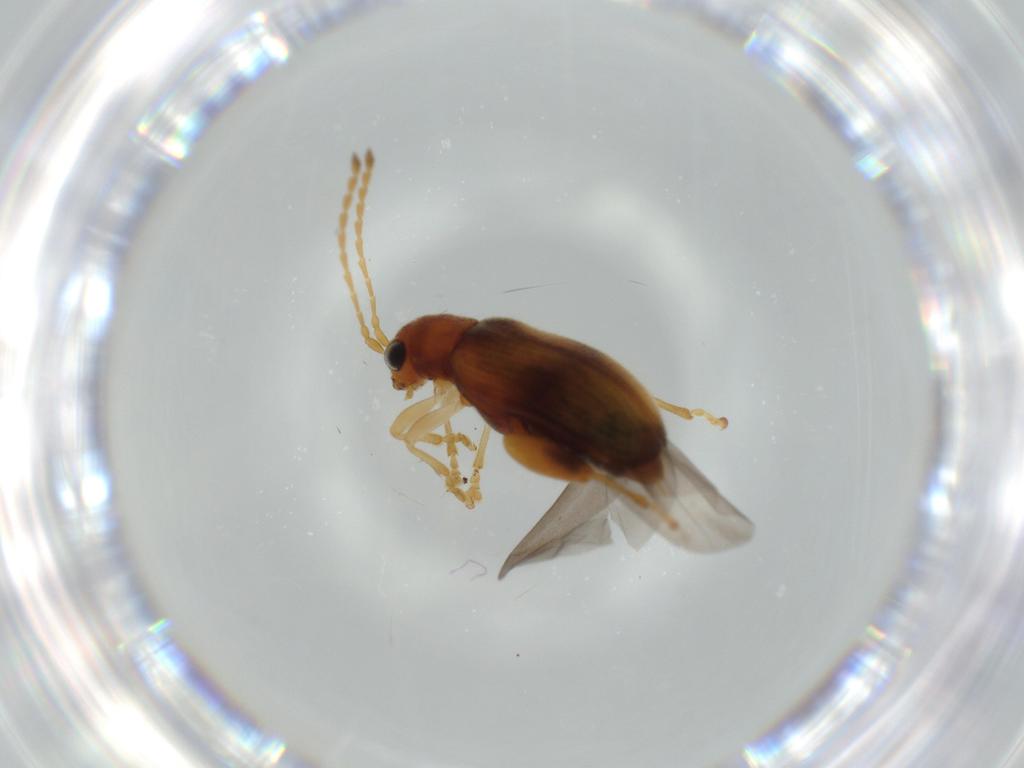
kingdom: Animalia
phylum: Arthropoda
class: Insecta
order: Coleoptera
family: Chrysomelidae
